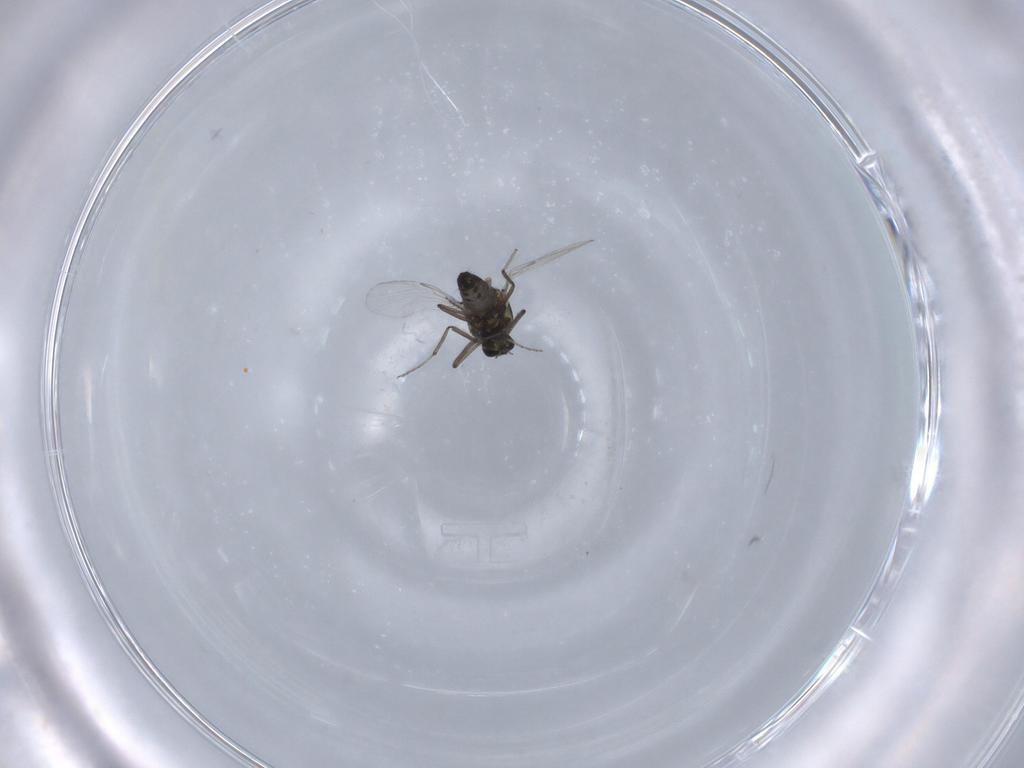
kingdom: Animalia
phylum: Arthropoda
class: Insecta
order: Diptera
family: Ceratopogonidae
